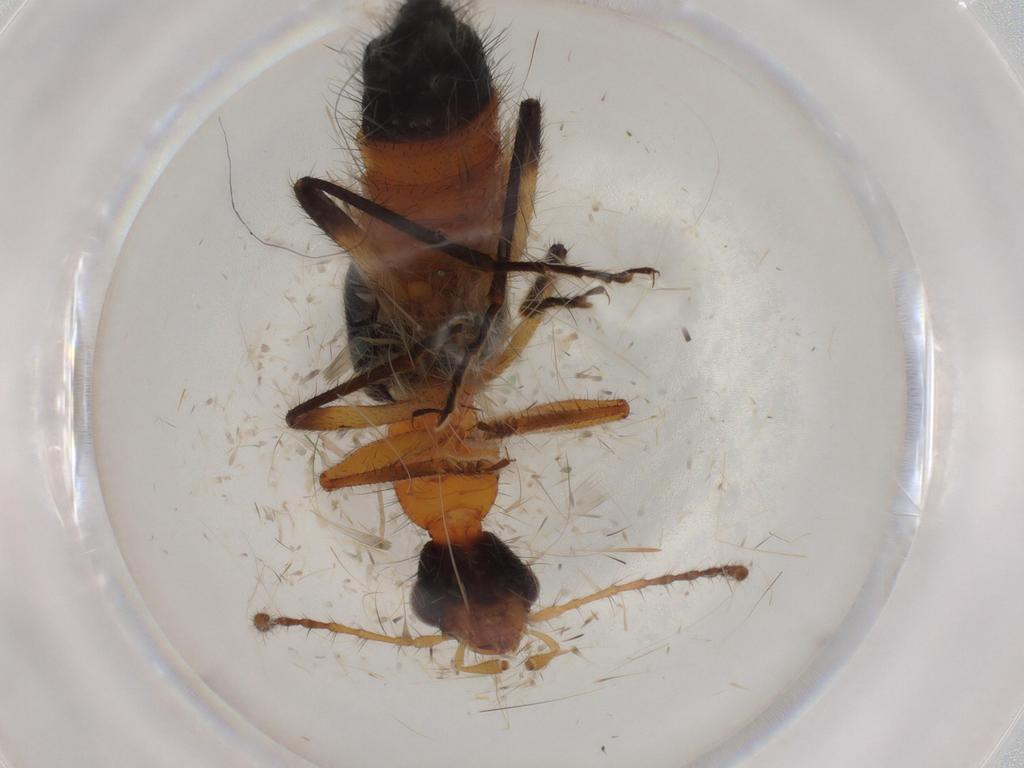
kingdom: Animalia
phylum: Arthropoda
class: Insecta
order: Coleoptera
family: Staphylinidae
